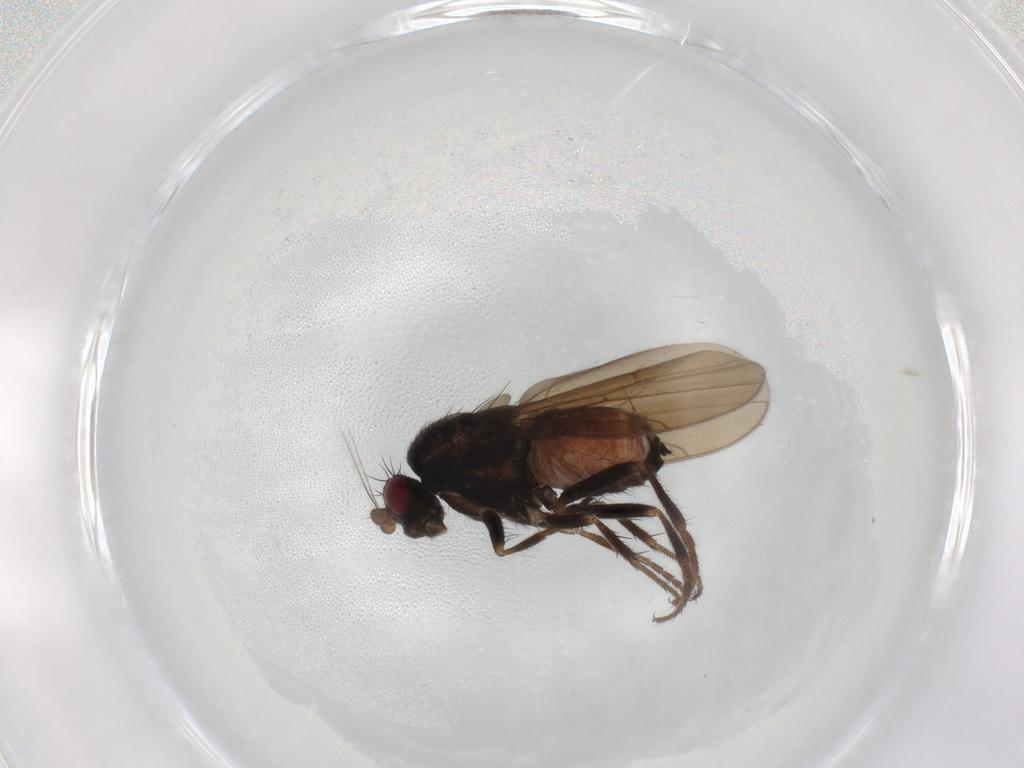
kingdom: Animalia
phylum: Arthropoda
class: Insecta
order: Diptera
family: Sphaeroceridae
